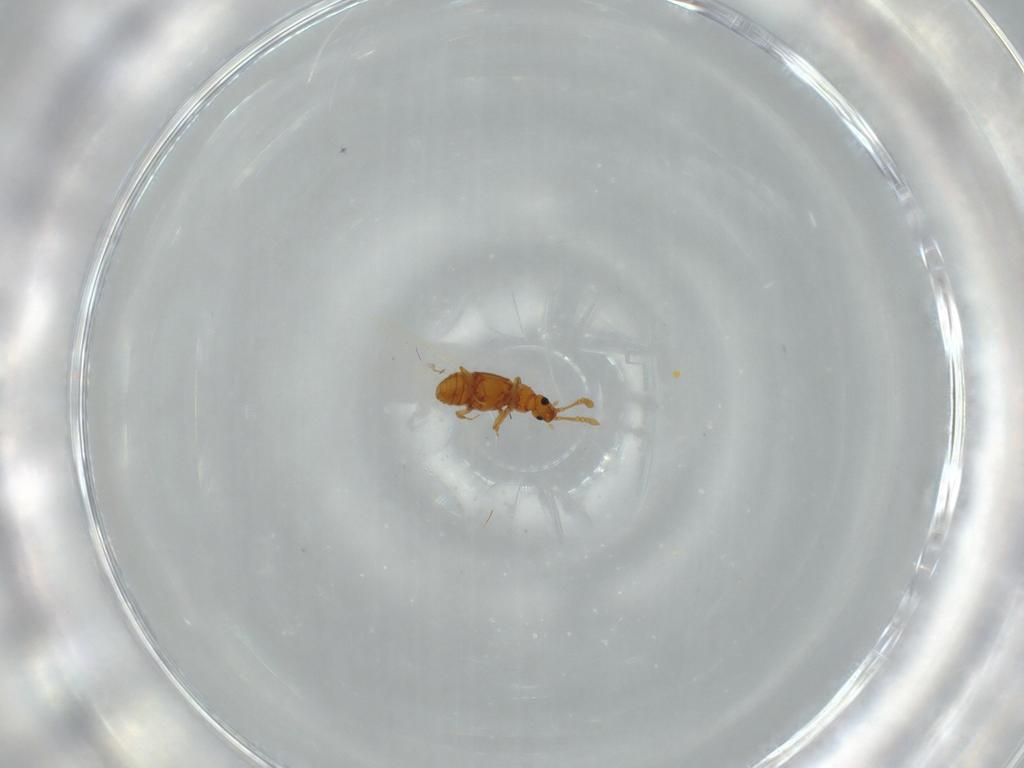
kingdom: Animalia
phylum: Arthropoda
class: Insecta
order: Coleoptera
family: Staphylinidae
